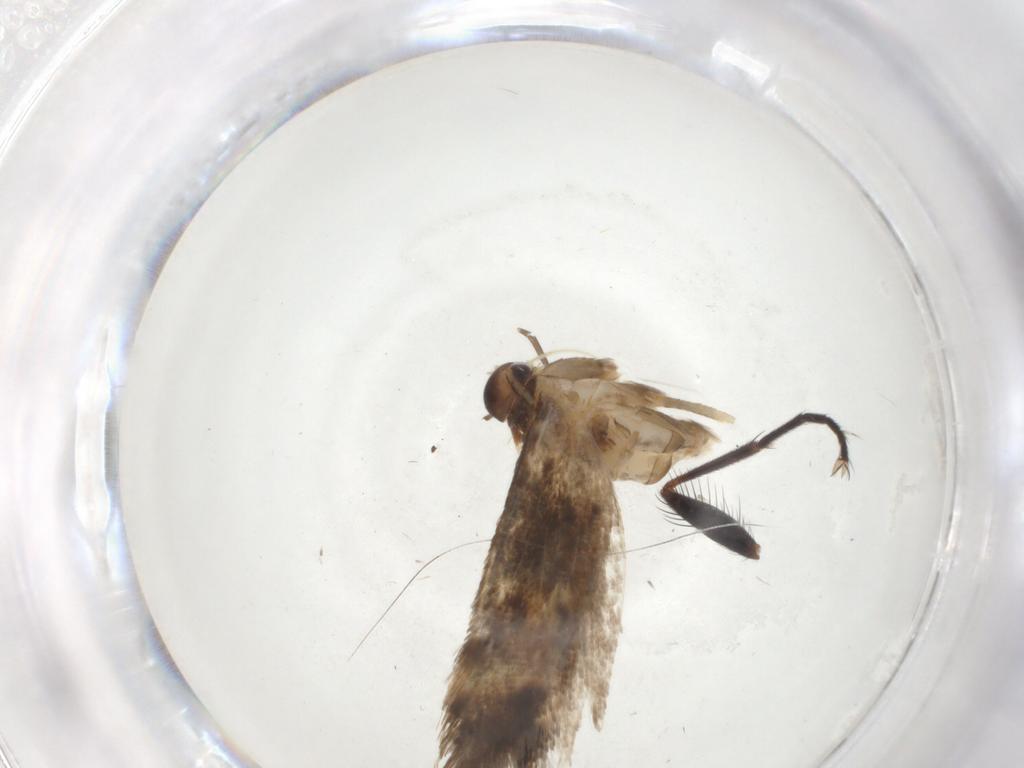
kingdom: Animalia
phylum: Arthropoda
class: Insecta
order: Lepidoptera
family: Momphidae
